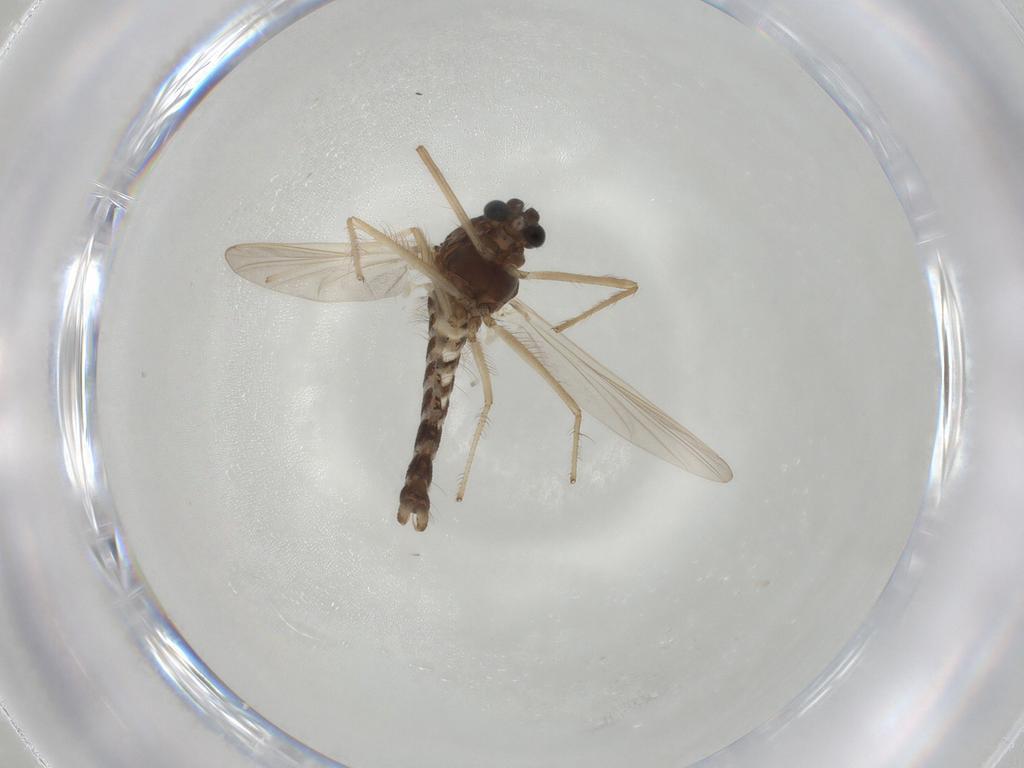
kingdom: Animalia
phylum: Arthropoda
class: Insecta
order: Diptera
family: Chironomidae
